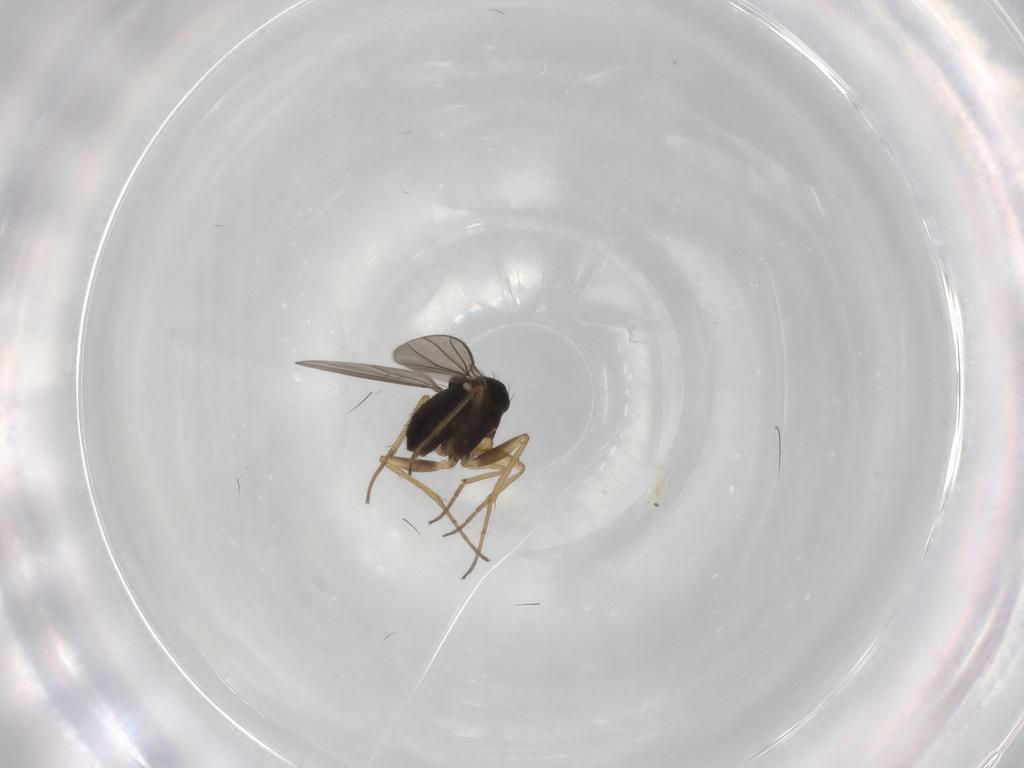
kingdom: Animalia
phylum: Arthropoda
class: Insecta
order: Diptera
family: Dolichopodidae
